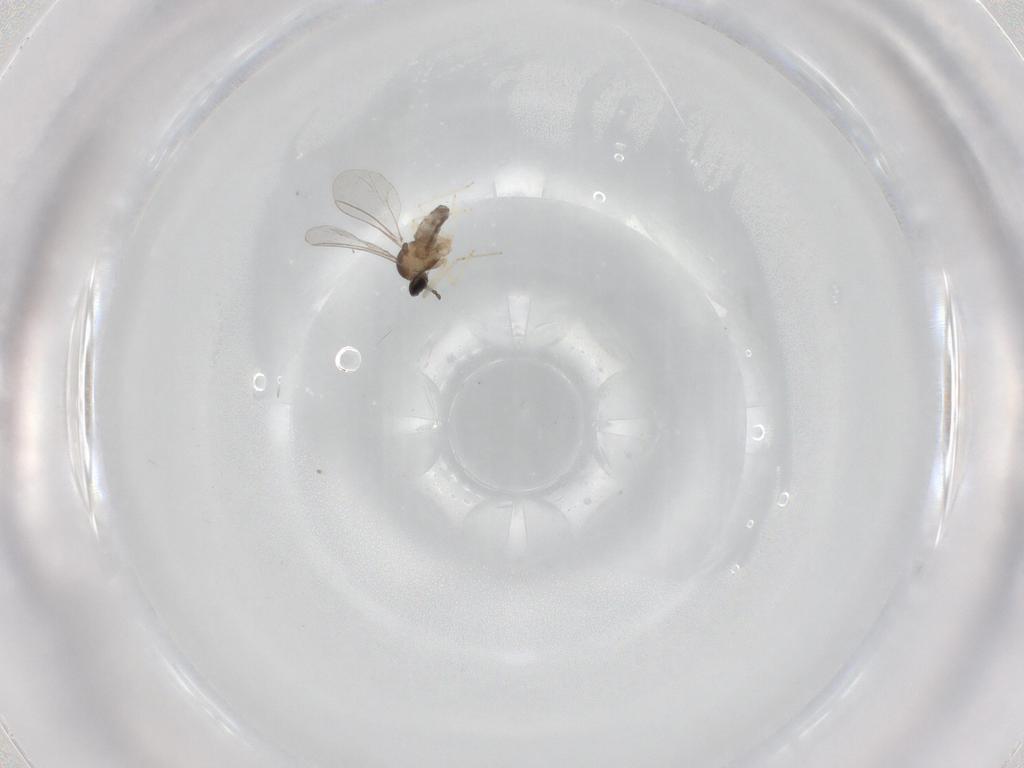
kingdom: Animalia
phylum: Arthropoda
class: Insecta
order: Diptera
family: Cecidomyiidae
